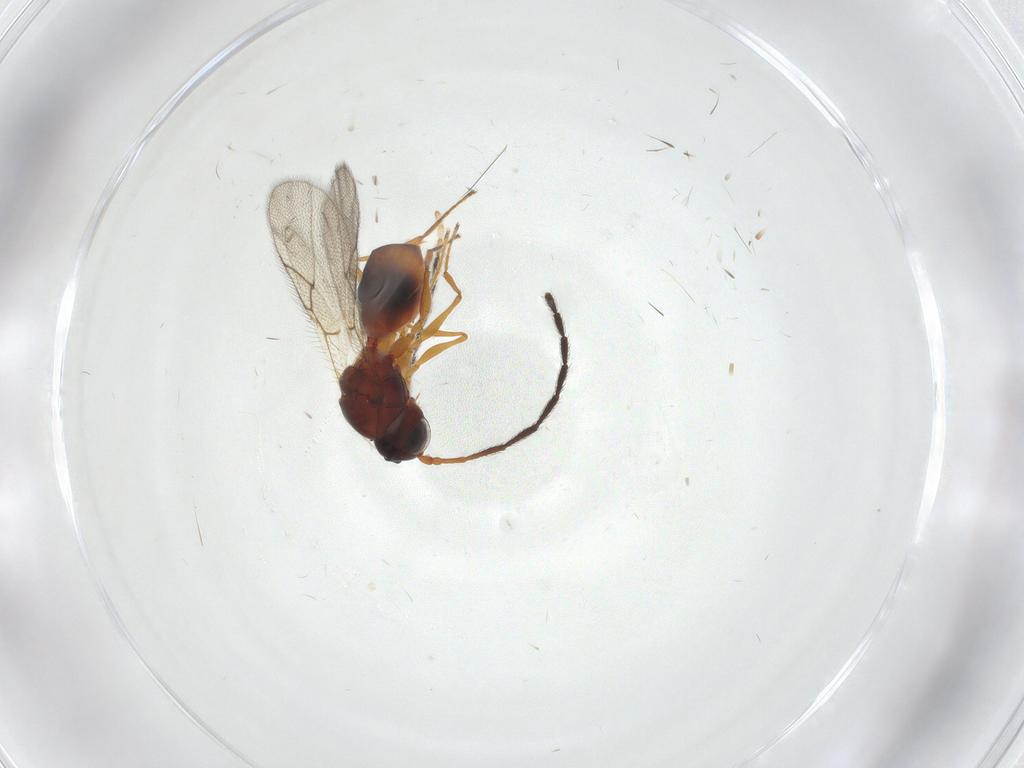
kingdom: Animalia
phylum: Arthropoda
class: Insecta
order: Hymenoptera
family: Figitidae
